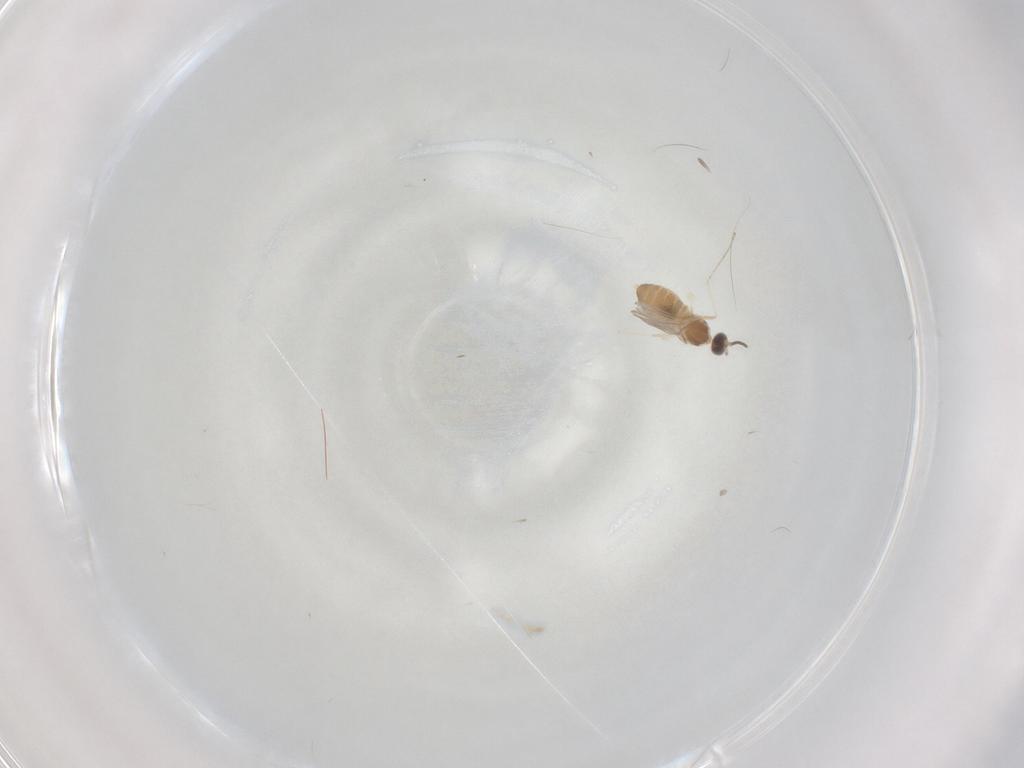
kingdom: Animalia
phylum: Arthropoda
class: Insecta
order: Diptera
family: Cecidomyiidae
